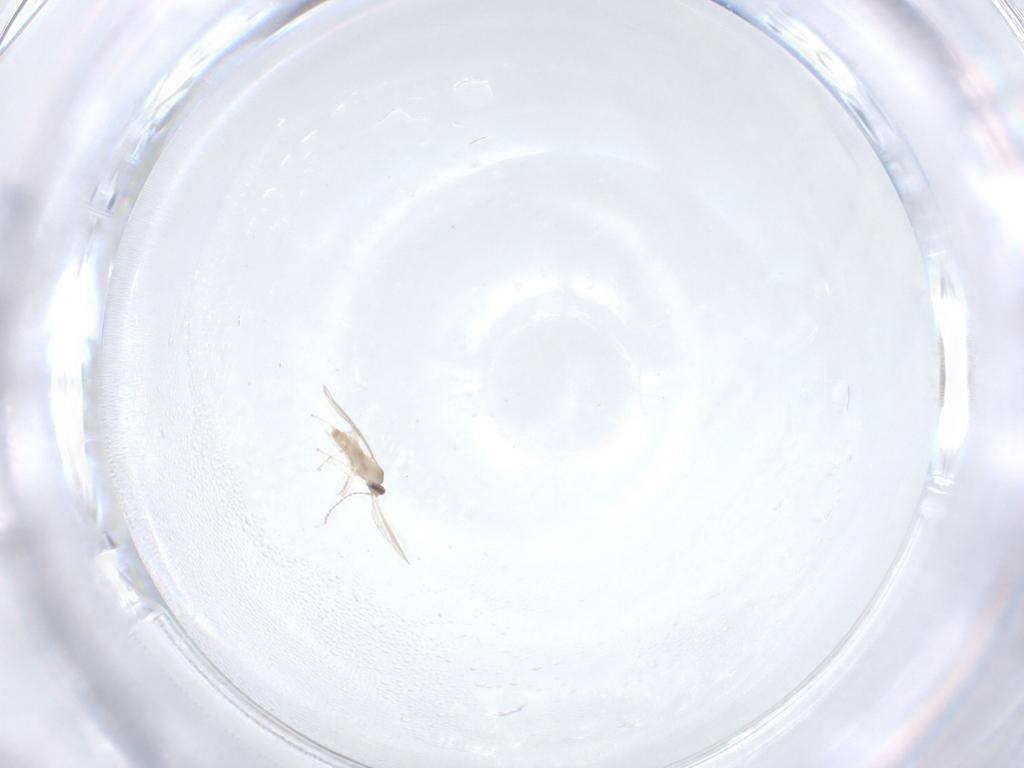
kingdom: Animalia
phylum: Arthropoda
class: Insecta
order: Diptera
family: Cecidomyiidae
